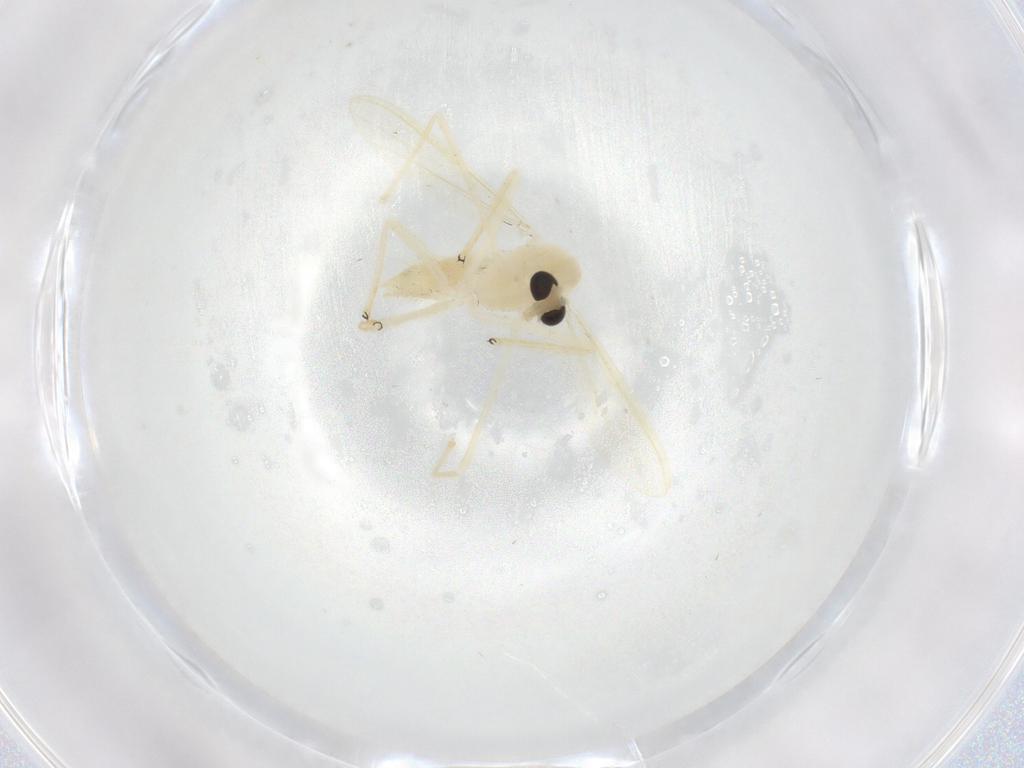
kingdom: Animalia
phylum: Arthropoda
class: Insecta
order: Diptera
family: Chironomidae
